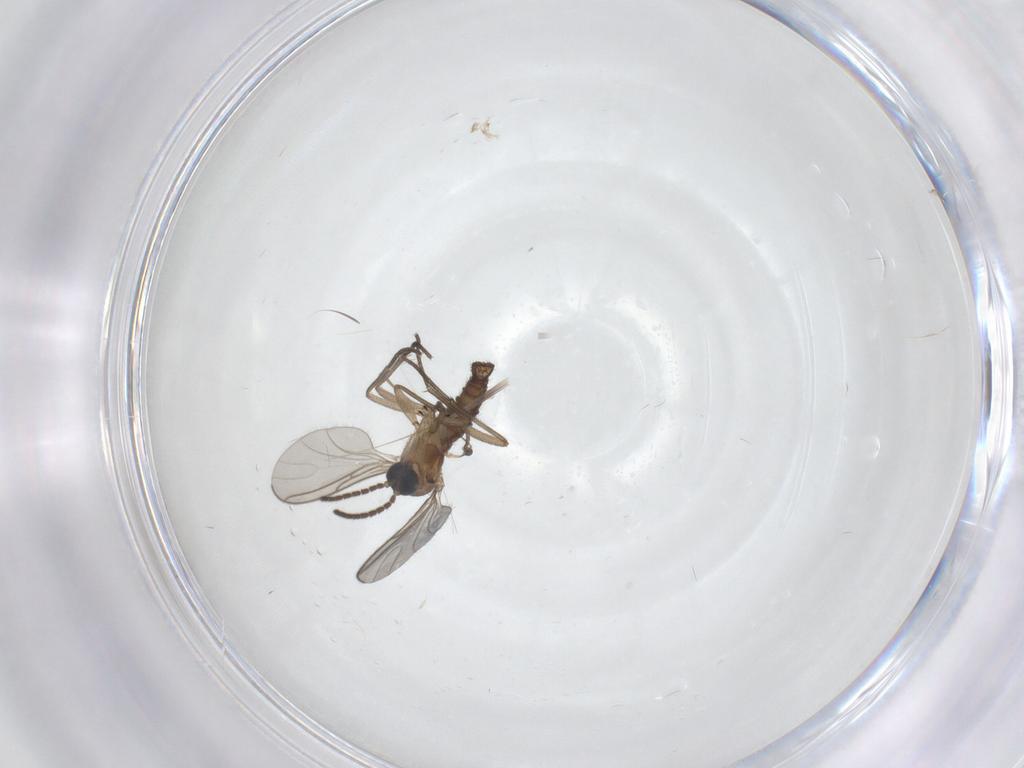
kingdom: Animalia
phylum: Arthropoda
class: Insecta
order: Diptera
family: Sciaridae
